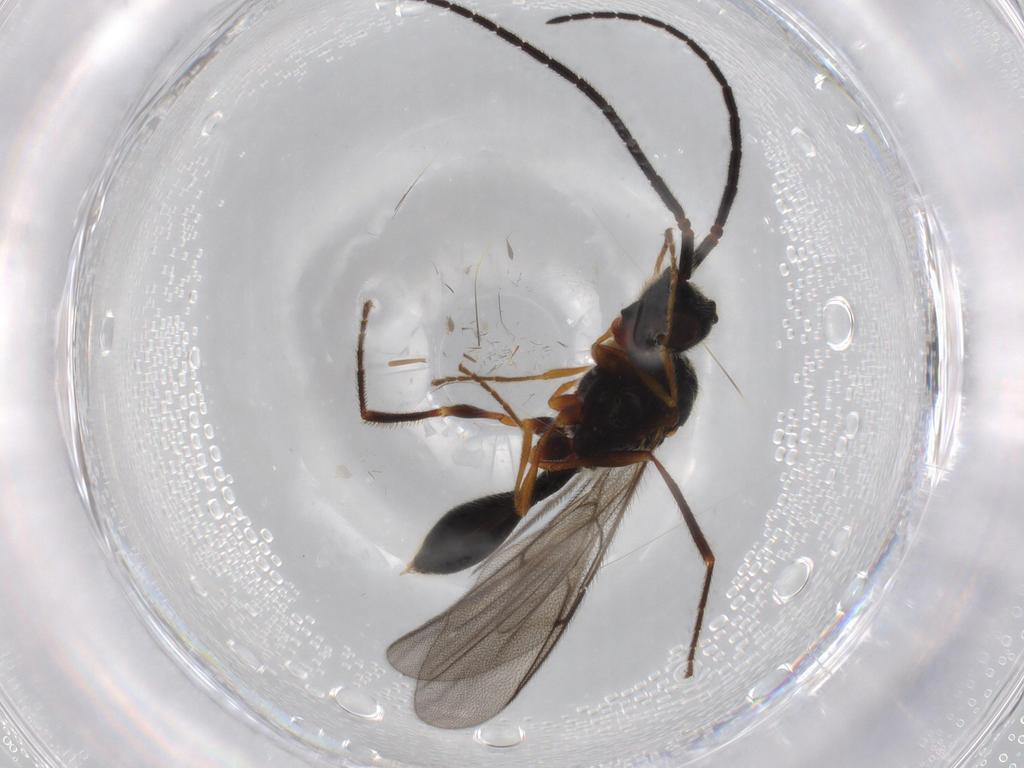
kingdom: Animalia
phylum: Arthropoda
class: Insecta
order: Hymenoptera
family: Diapriidae
